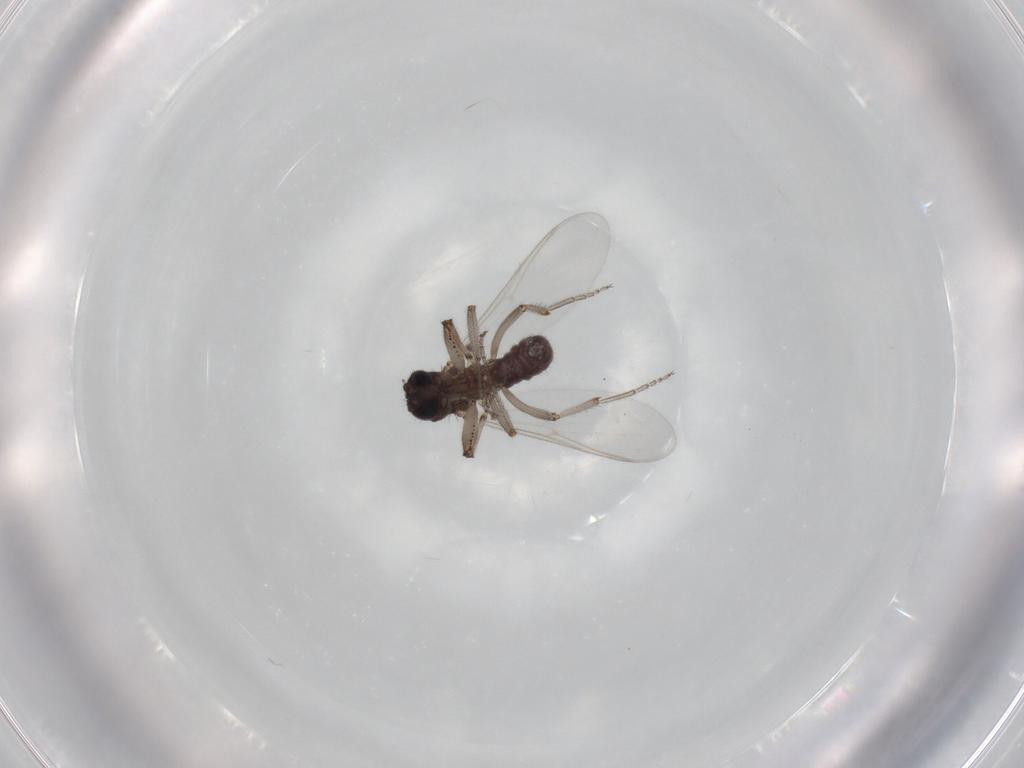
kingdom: Animalia
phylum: Arthropoda
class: Insecta
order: Diptera
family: Ceratopogonidae
